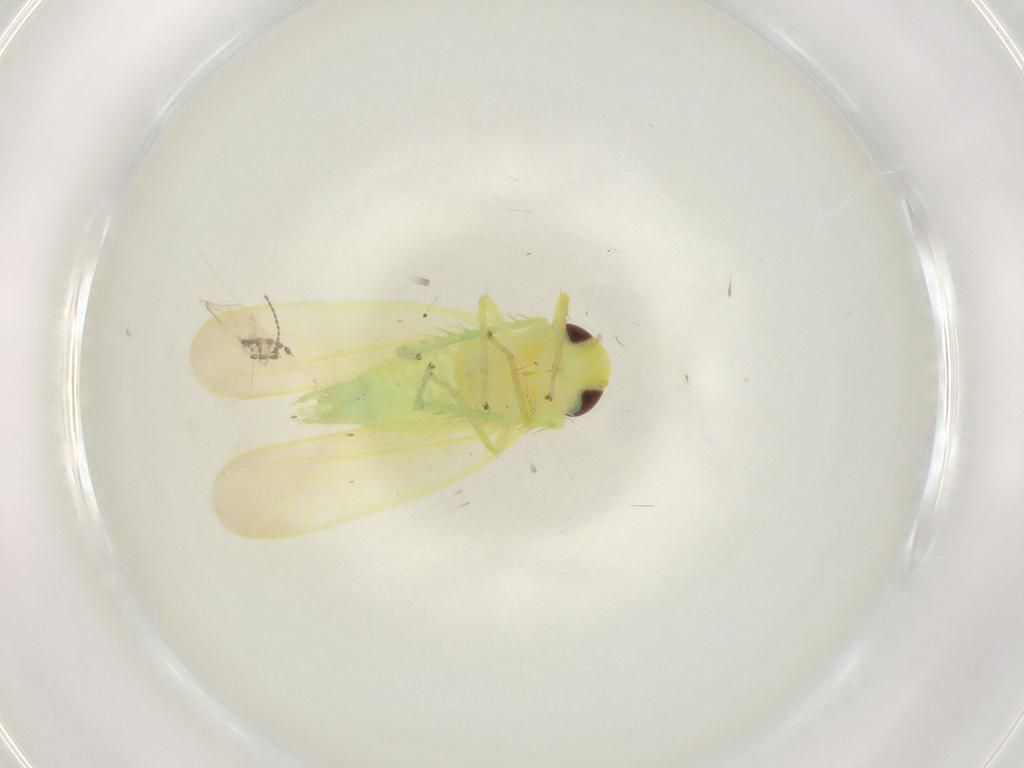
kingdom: Animalia
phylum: Arthropoda
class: Insecta
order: Hemiptera
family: Cicadellidae
